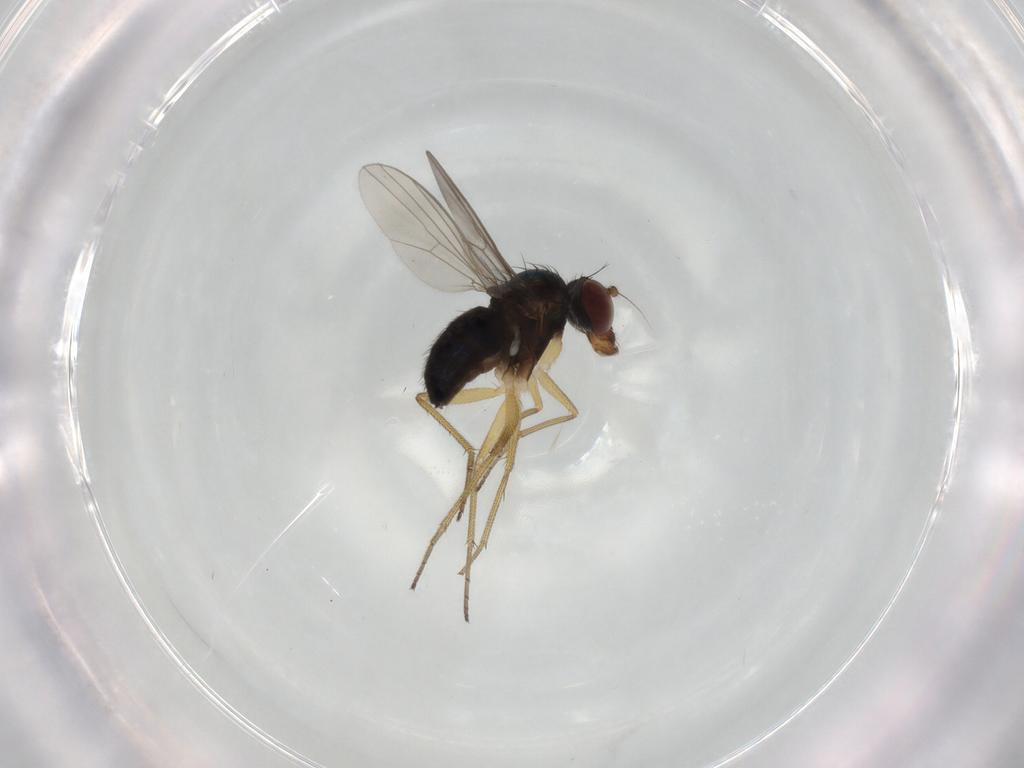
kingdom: Animalia
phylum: Arthropoda
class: Insecta
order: Diptera
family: Dolichopodidae
